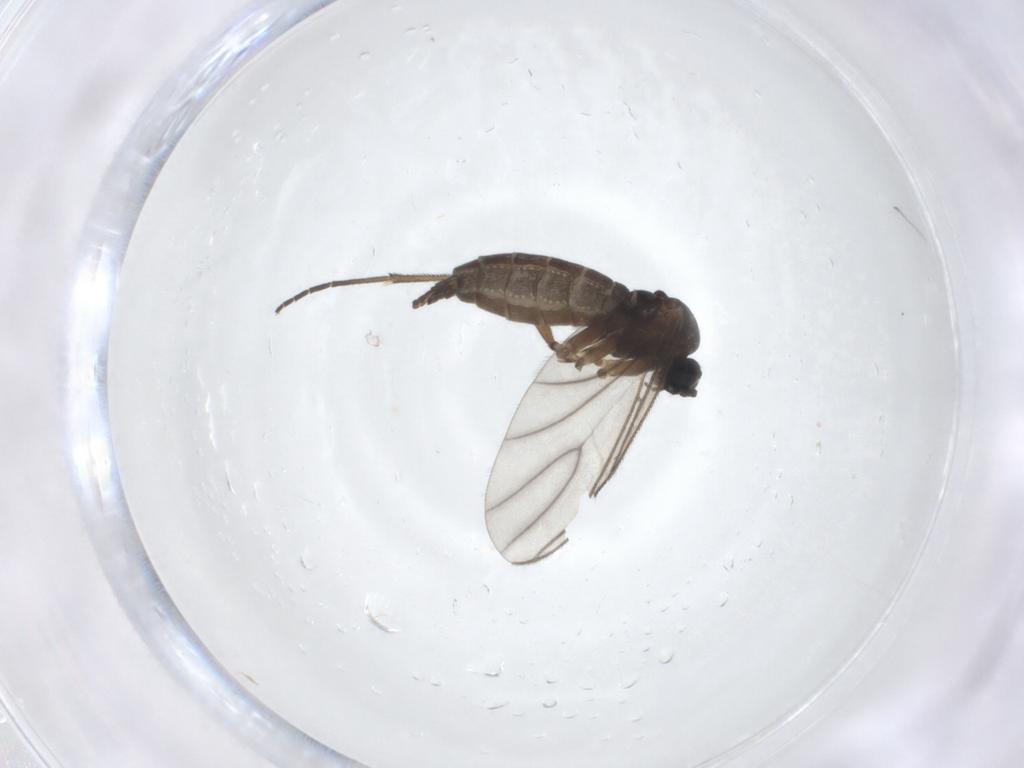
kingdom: Animalia
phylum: Arthropoda
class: Insecta
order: Diptera
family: Sciaridae
